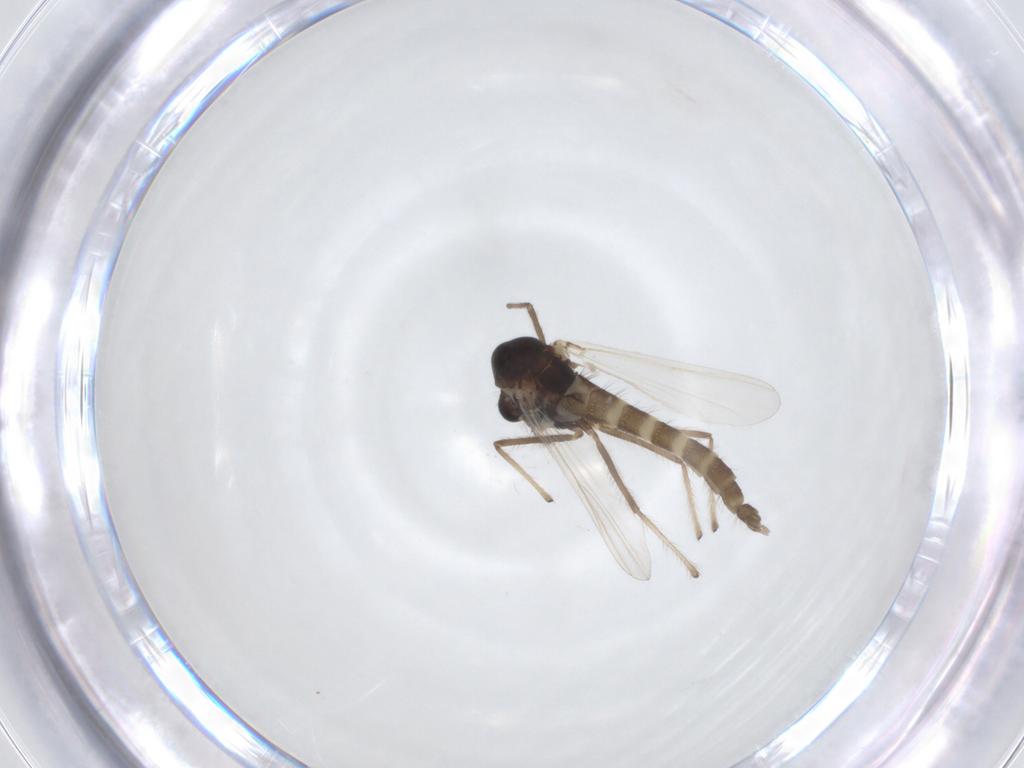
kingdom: Animalia
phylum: Arthropoda
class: Insecta
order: Diptera
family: Chironomidae
